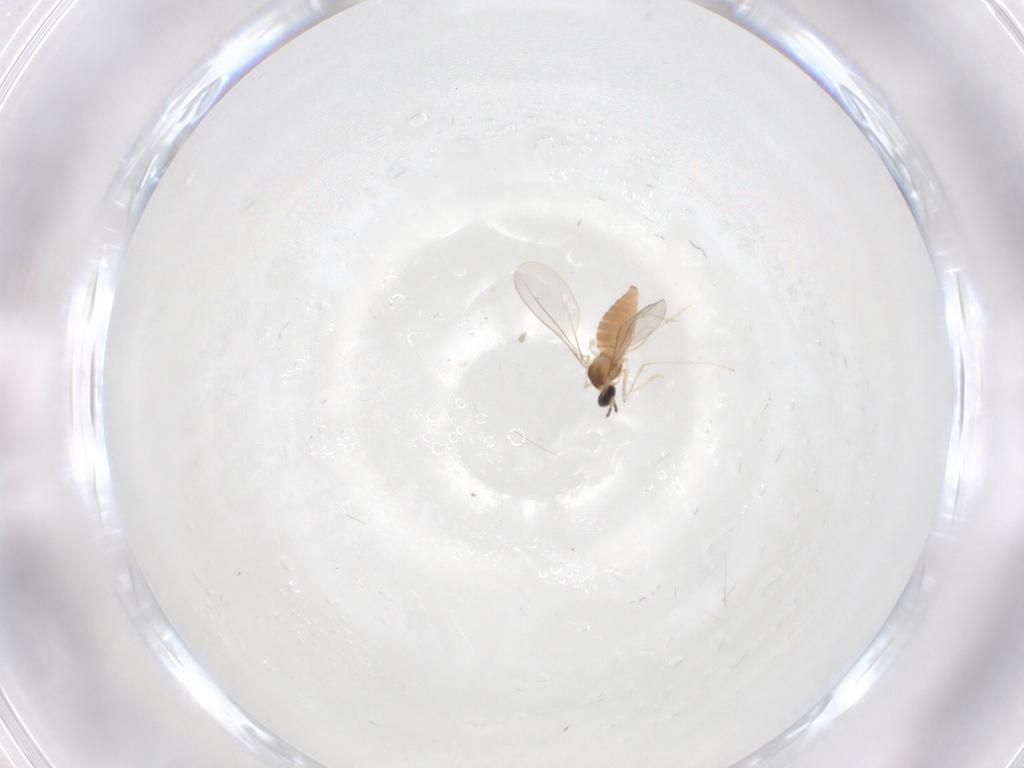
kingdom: Animalia
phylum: Arthropoda
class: Insecta
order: Diptera
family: Cecidomyiidae
